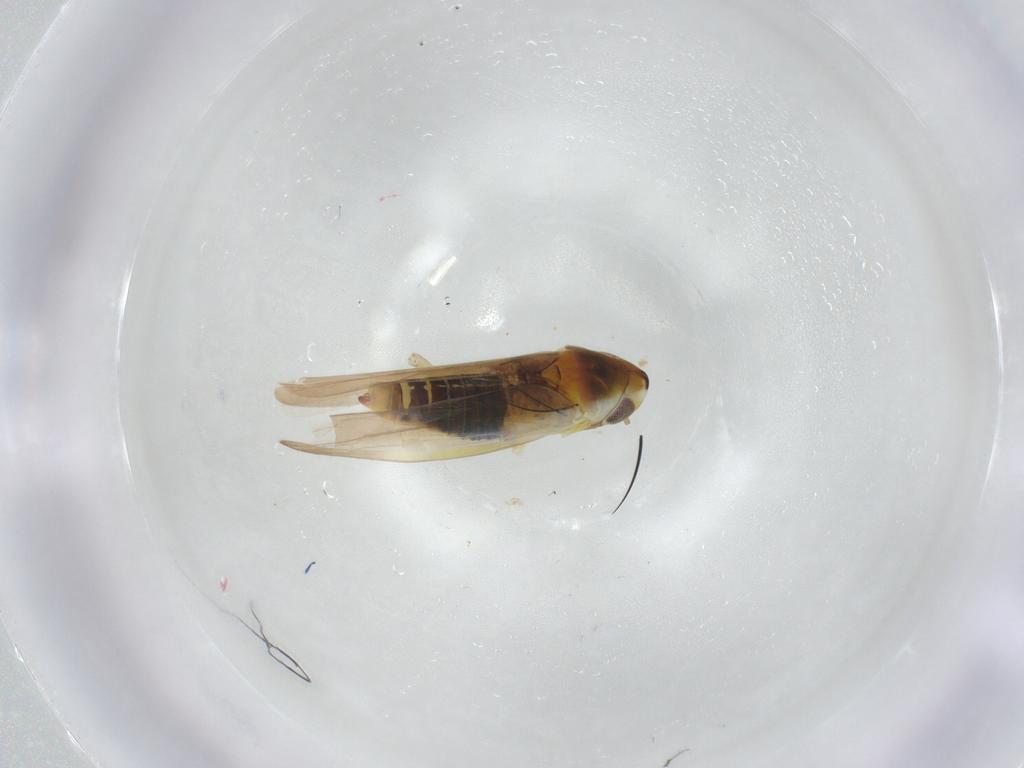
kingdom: Animalia
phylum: Arthropoda
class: Insecta
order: Hemiptera
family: Cicadellidae
